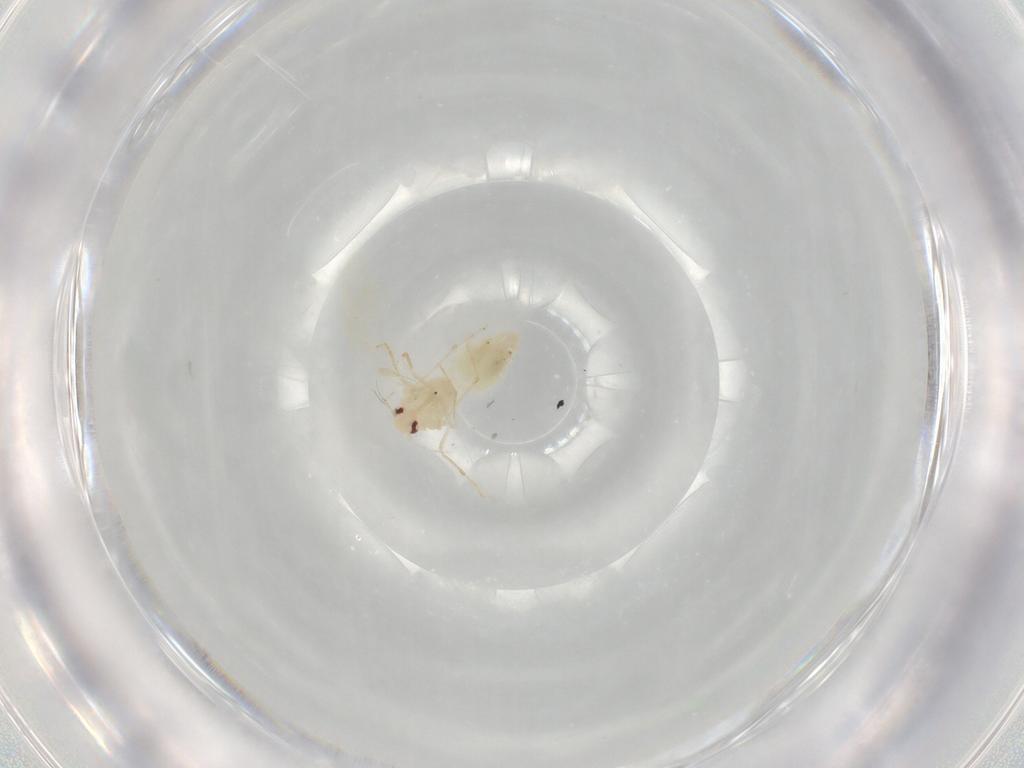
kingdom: Animalia
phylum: Arthropoda
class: Insecta
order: Hemiptera
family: Aleyrodidae
